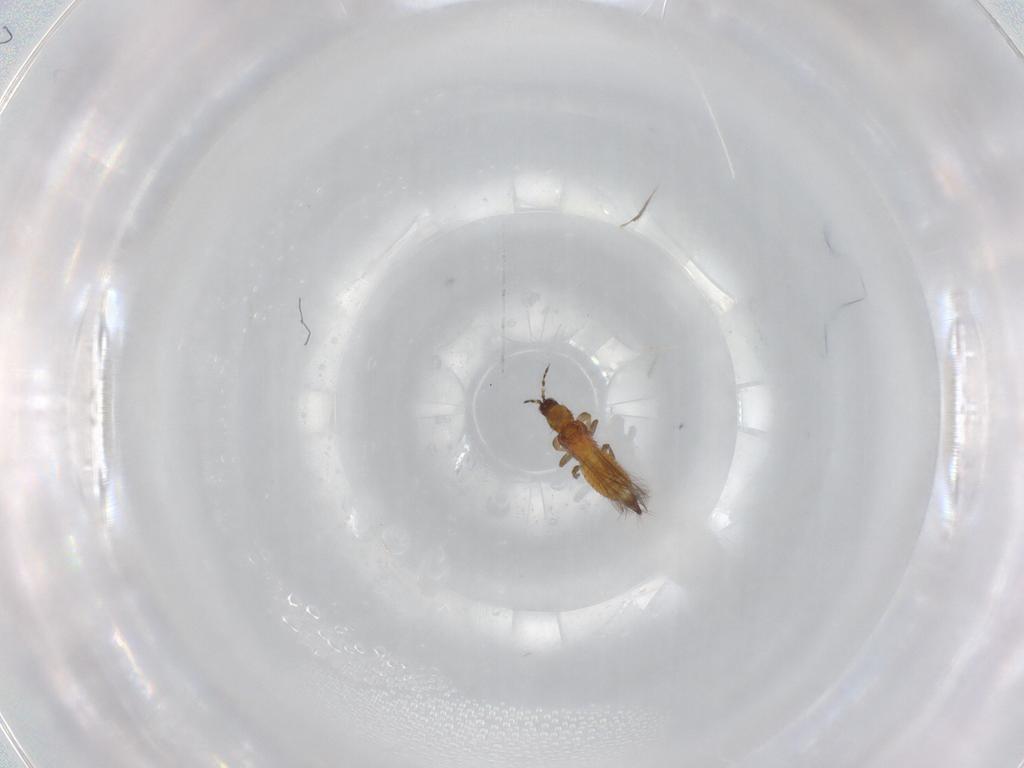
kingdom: Animalia
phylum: Arthropoda
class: Insecta
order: Thysanoptera
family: Thripidae
